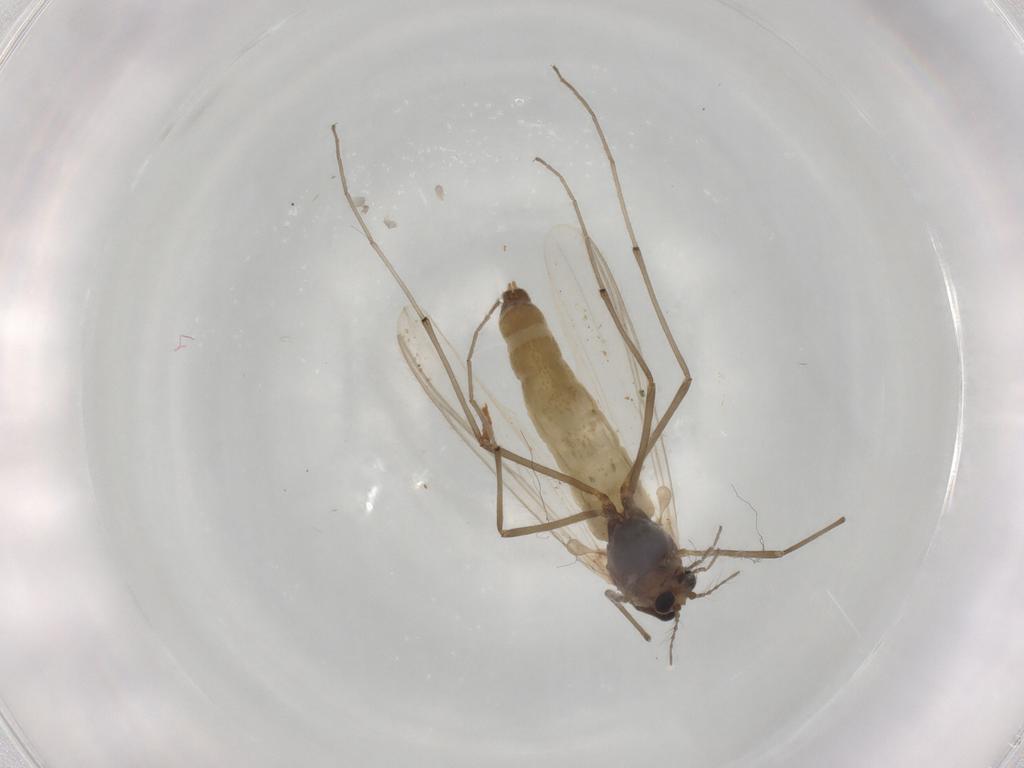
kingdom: Animalia
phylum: Arthropoda
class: Insecta
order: Diptera
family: Chironomidae
